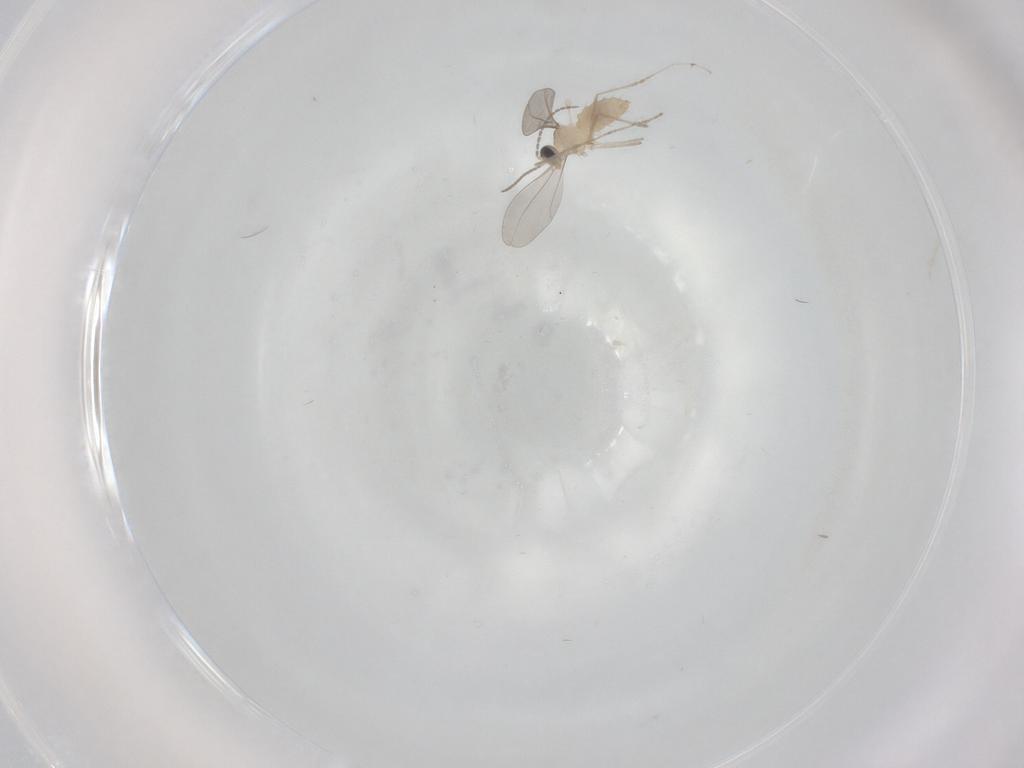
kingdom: Animalia
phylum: Arthropoda
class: Insecta
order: Diptera
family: Cecidomyiidae
